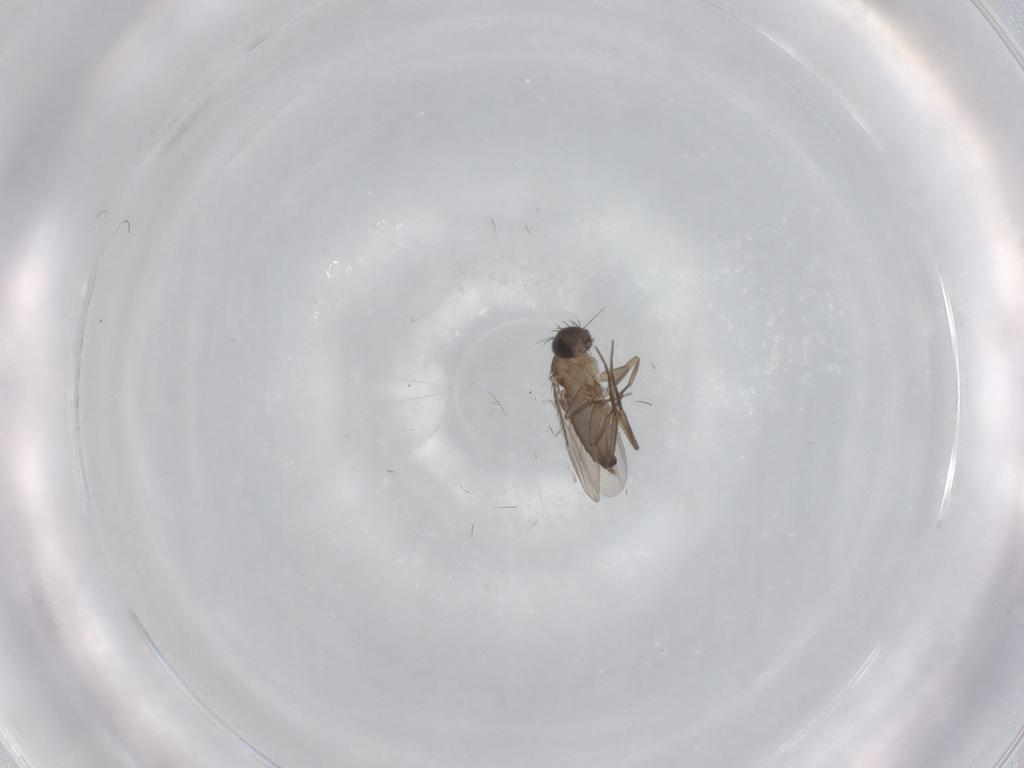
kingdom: Animalia
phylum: Arthropoda
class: Insecta
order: Diptera
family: Phoridae
